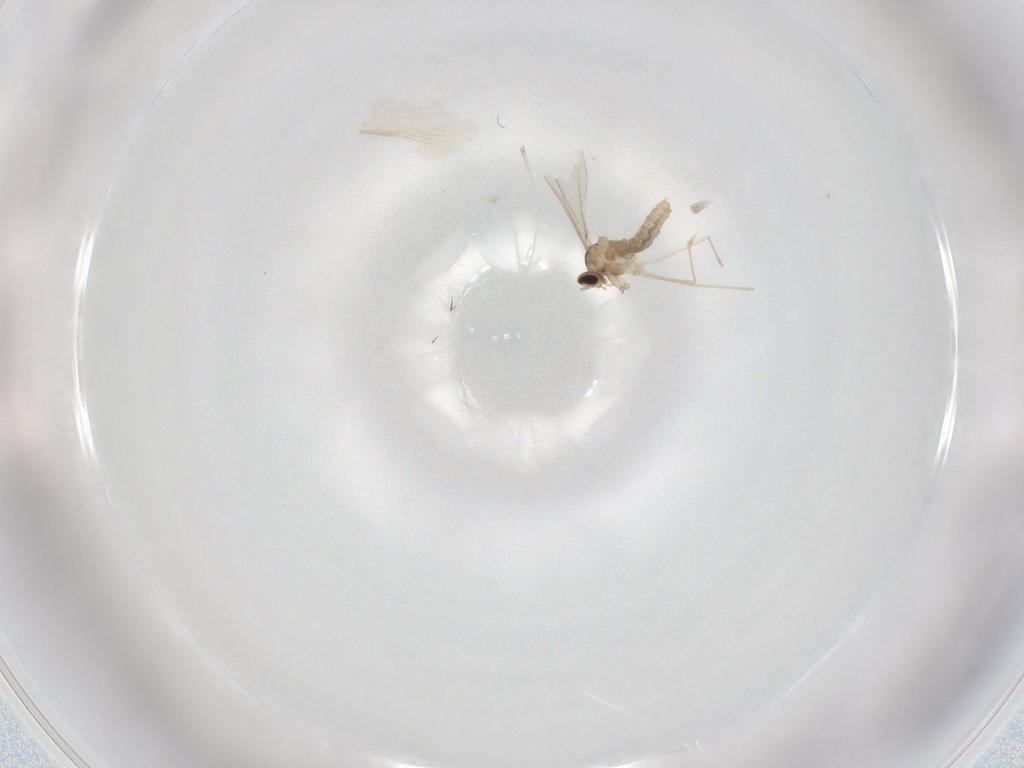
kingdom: Animalia
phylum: Arthropoda
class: Insecta
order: Diptera
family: Cecidomyiidae
